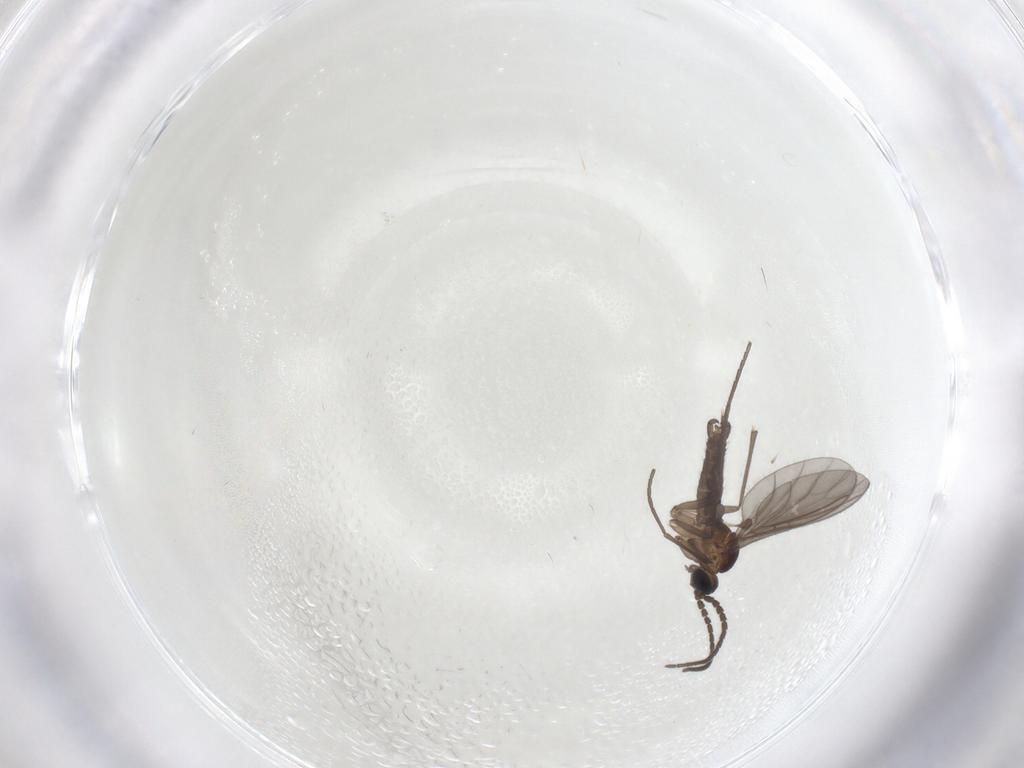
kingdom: Animalia
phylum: Arthropoda
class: Insecta
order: Diptera
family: Sciaridae
